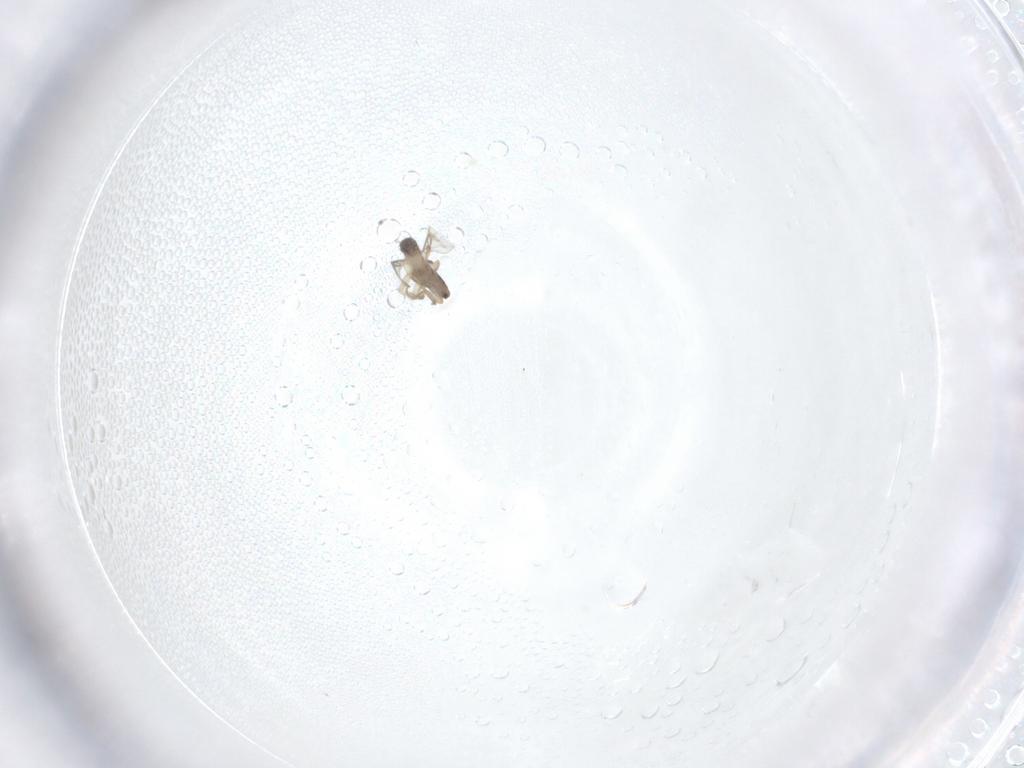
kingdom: Animalia
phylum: Arthropoda
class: Insecta
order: Diptera
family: Phoridae
